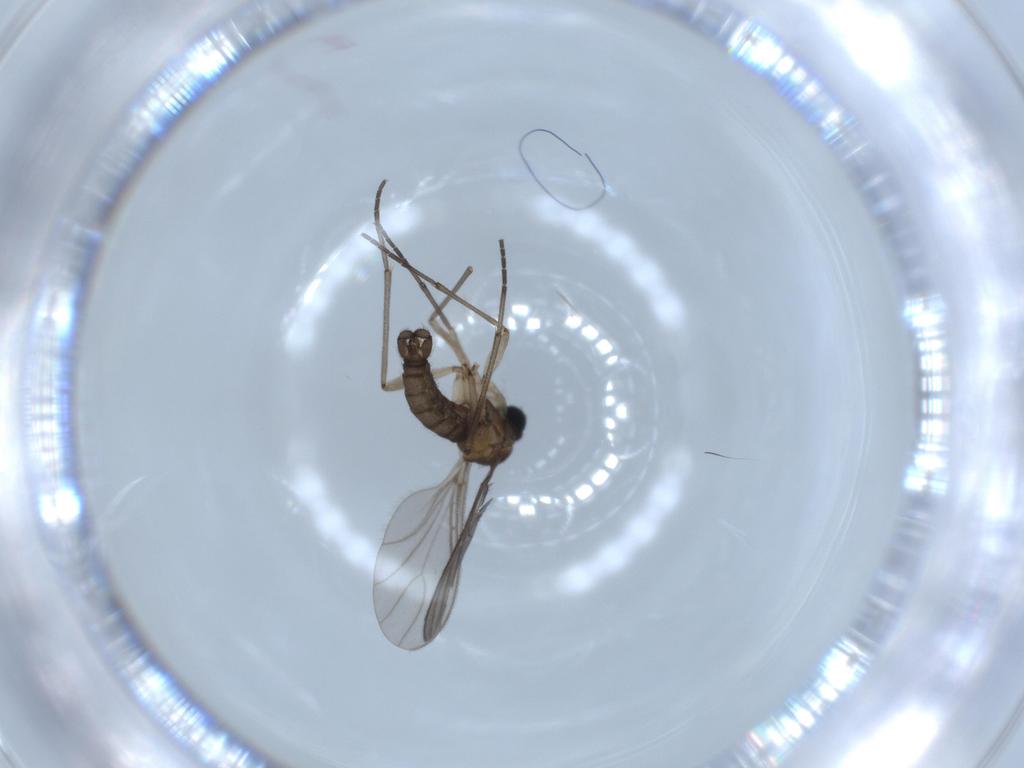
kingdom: Animalia
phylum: Arthropoda
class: Insecta
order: Diptera
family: Sciaridae
